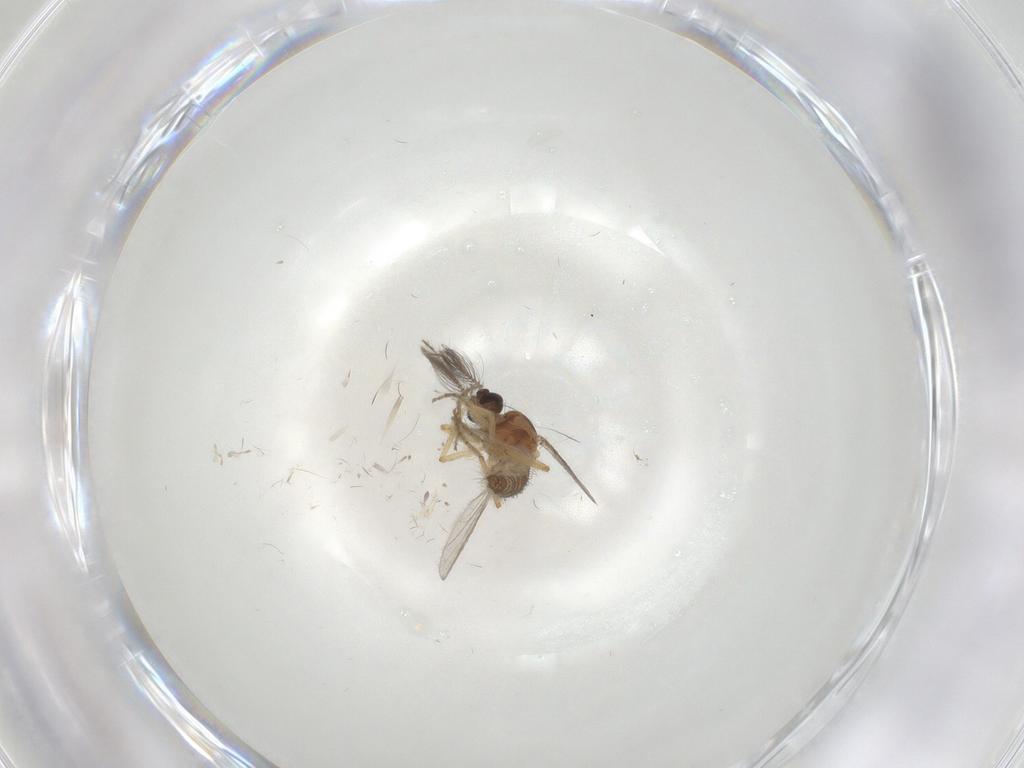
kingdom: Animalia
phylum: Arthropoda
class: Insecta
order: Diptera
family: Ceratopogonidae
